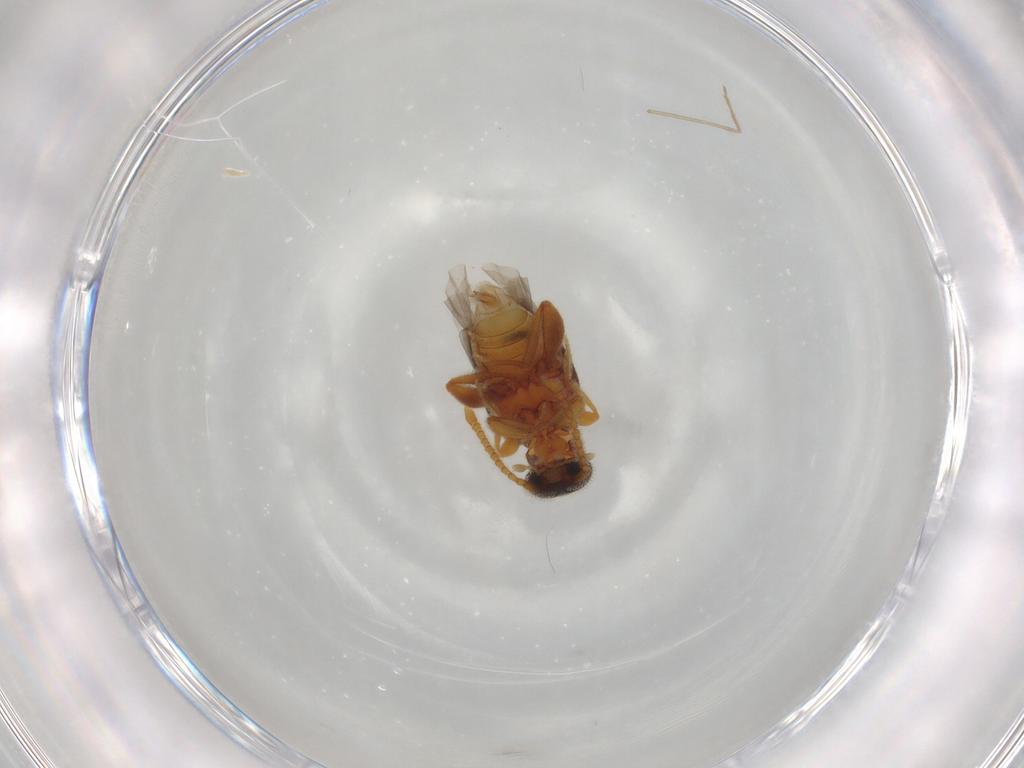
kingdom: Animalia
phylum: Arthropoda
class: Insecta
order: Coleoptera
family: Aderidae
